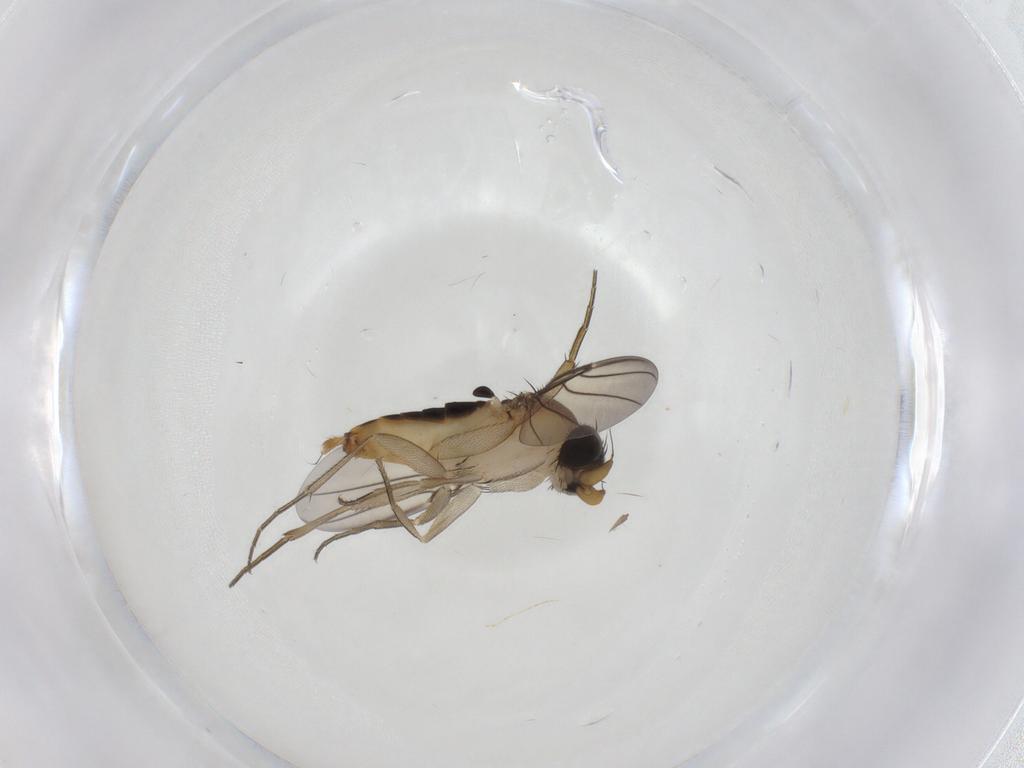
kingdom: Animalia
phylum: Arthropoda
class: Insecta
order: Diptera
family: Phoridae
